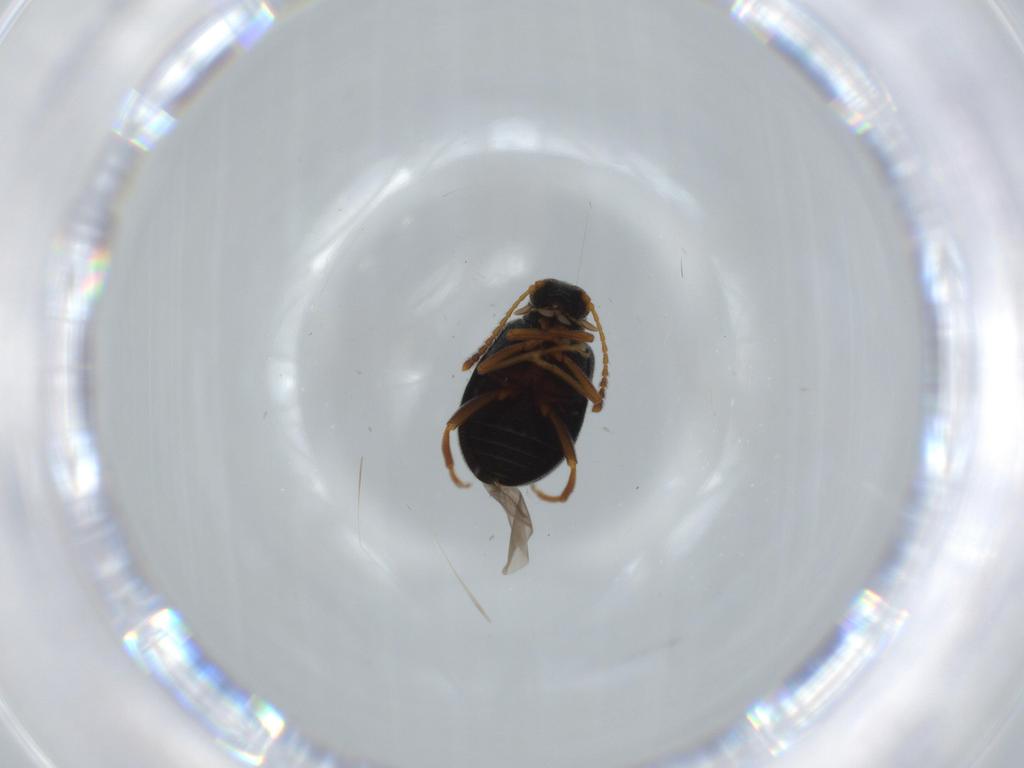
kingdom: Animalia
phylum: Arthropoda
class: Insecta
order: Coleoptera
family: Aderidae
